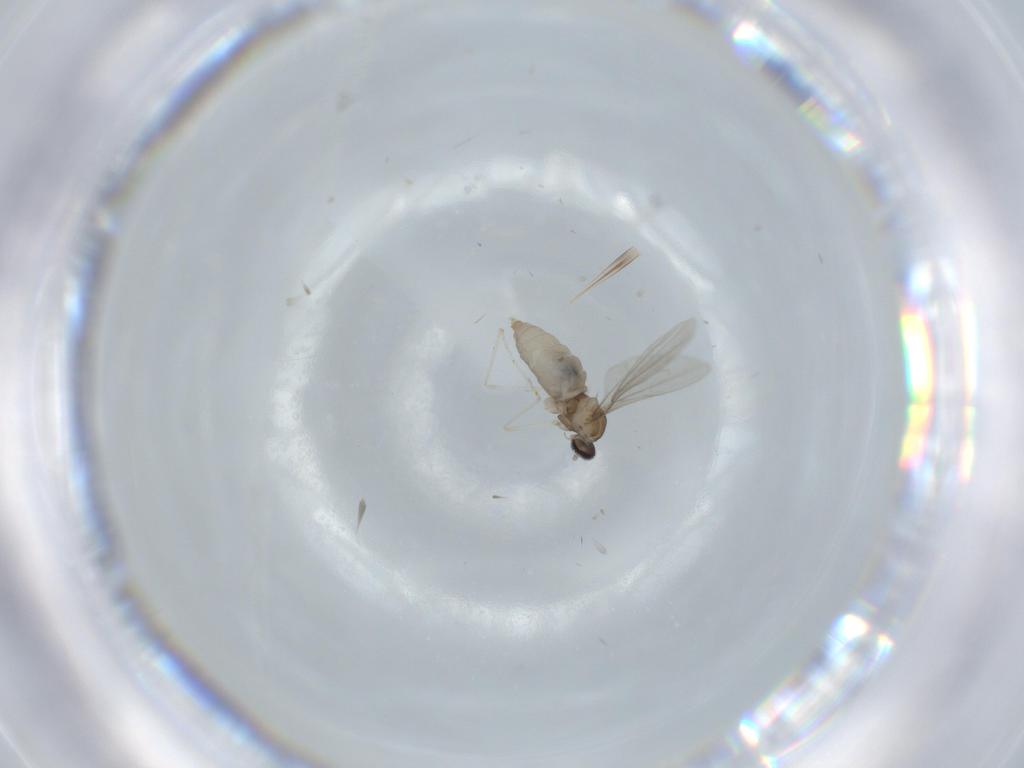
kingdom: Animalia
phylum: Arthropoda
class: Insecta
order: Diptera
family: Cecidomyiidae
